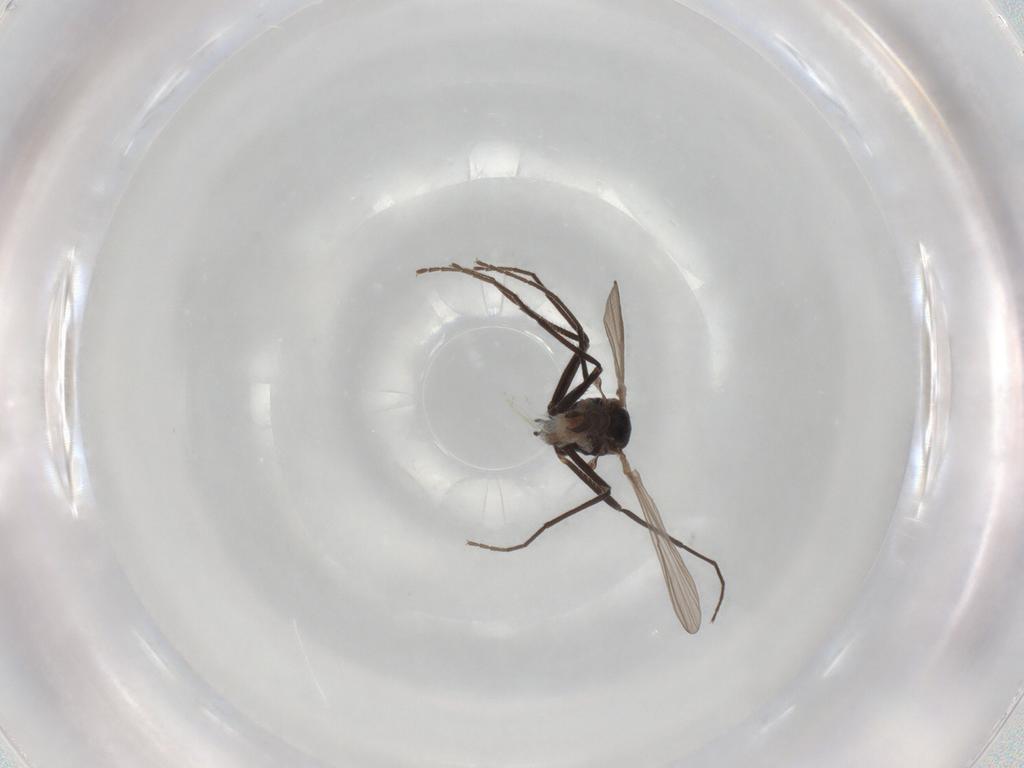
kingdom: Animalia
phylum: Arthropoda
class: Insecta
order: Diptera
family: Chironomidae
